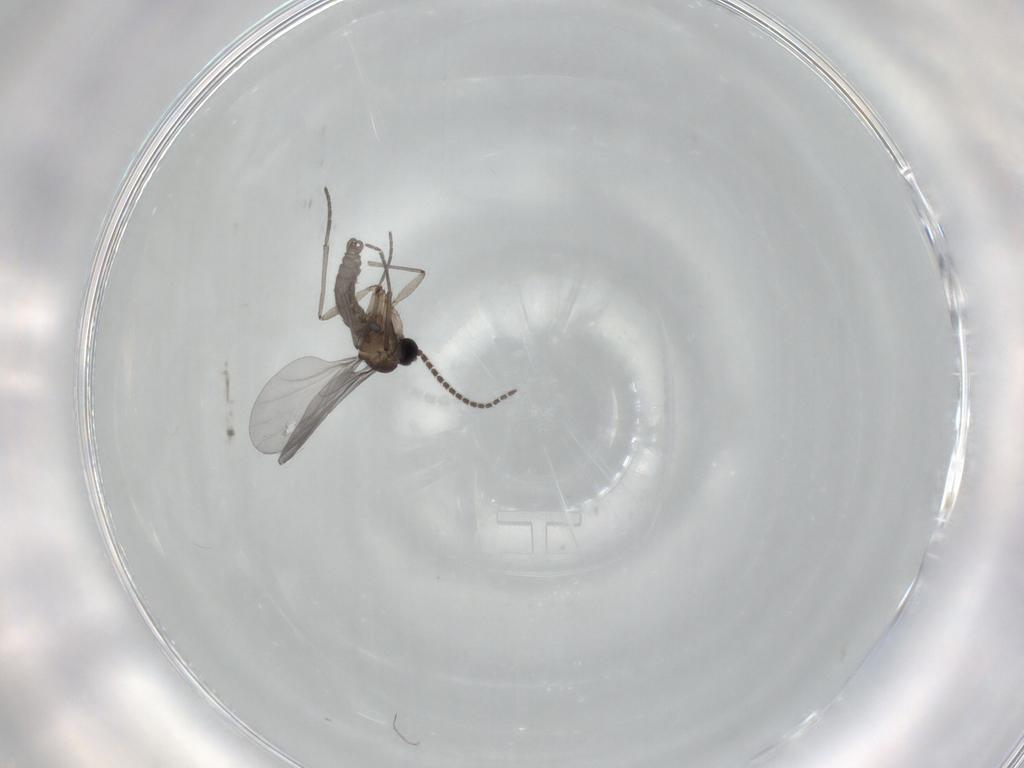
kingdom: Animalia
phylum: Arthropoda
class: Insecta
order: Diptera
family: Sciaridae
